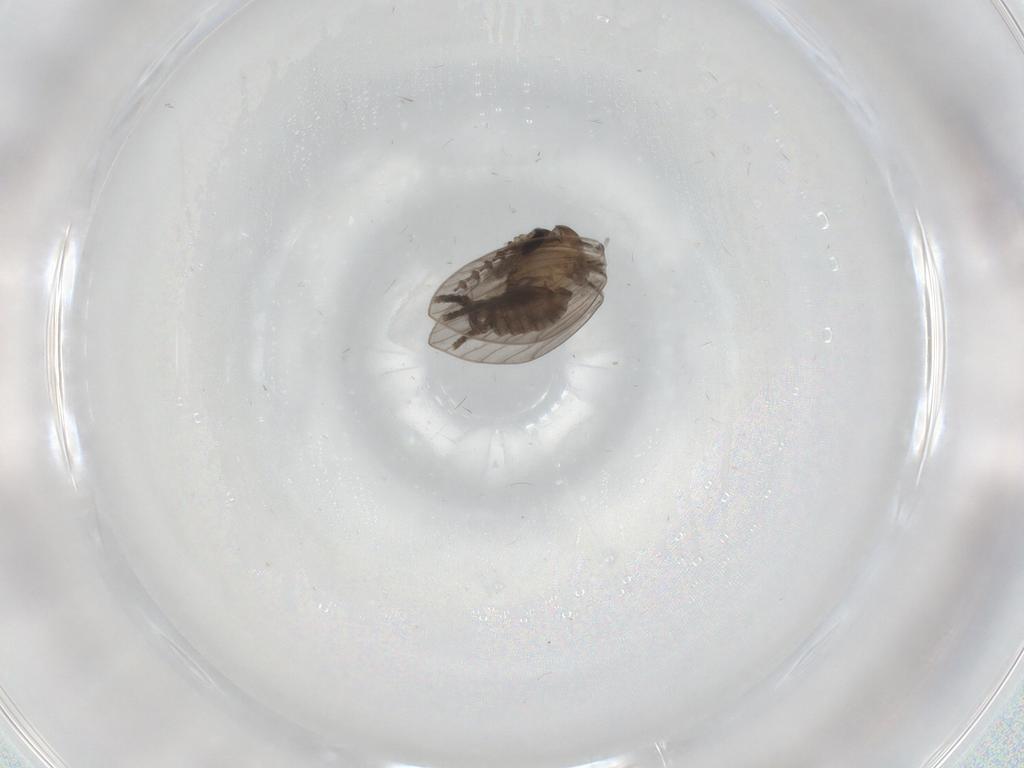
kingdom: Animalia
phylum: Arthropoda
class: Insecta
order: Diptera
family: Psychodidae
